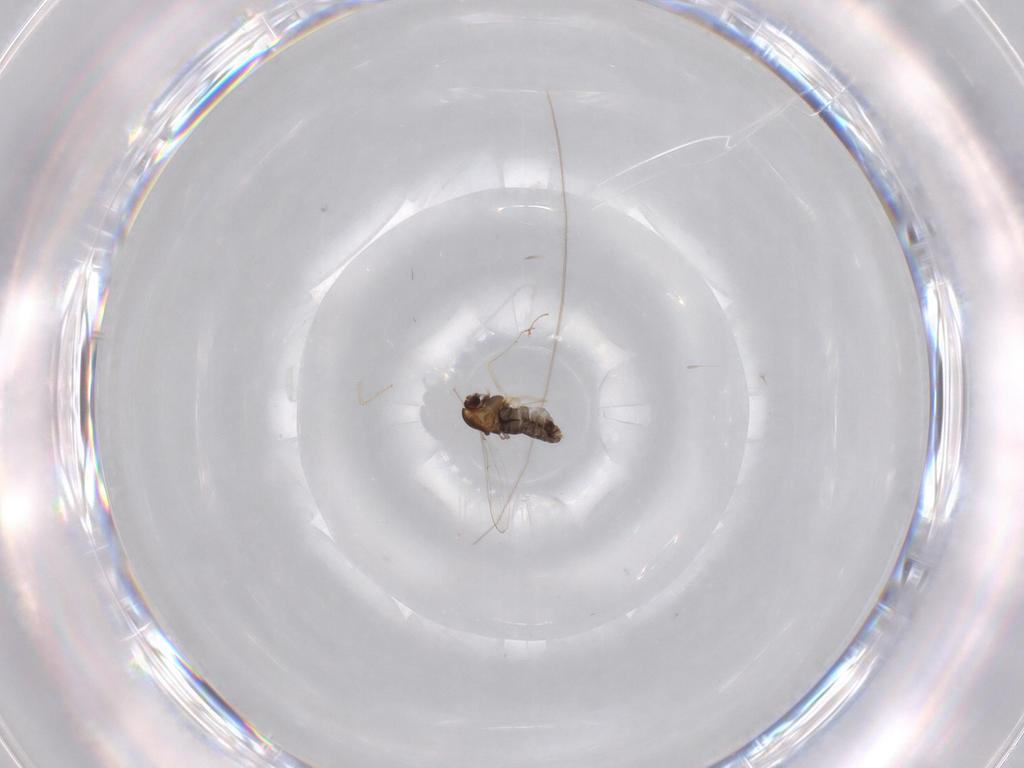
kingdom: Animalia
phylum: Arthropoda
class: Insecta
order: Diptera
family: Chironomidae
